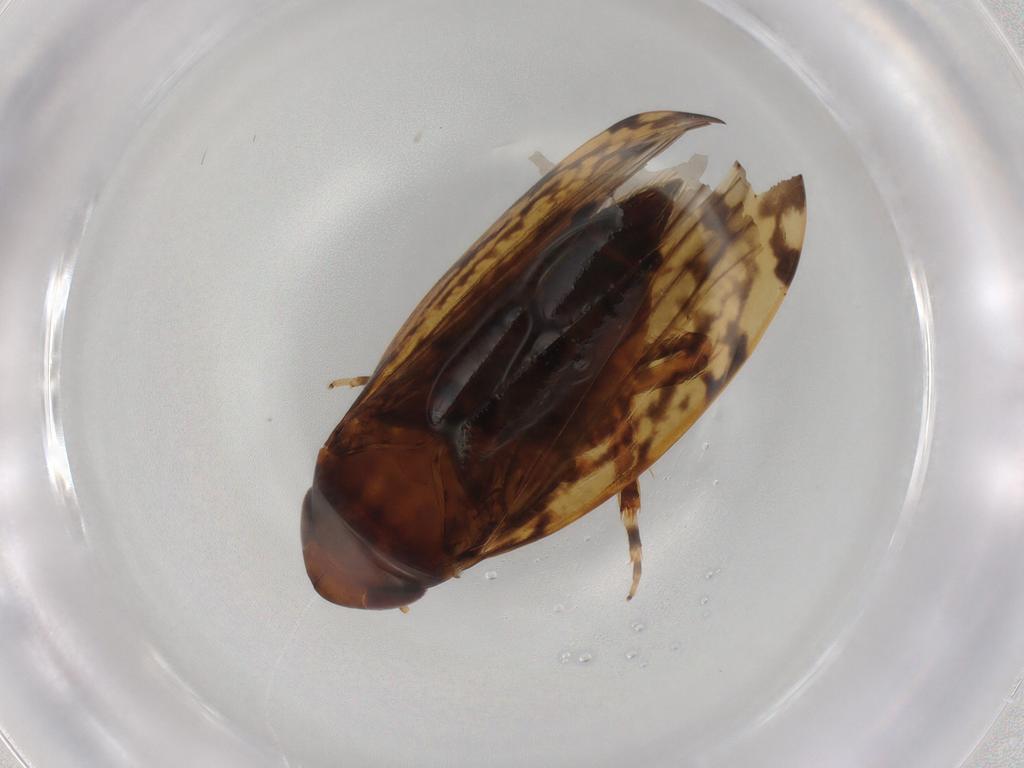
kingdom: Animalia
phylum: Arthropoda
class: Insecta
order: Hemiptera
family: Cicadellidae
